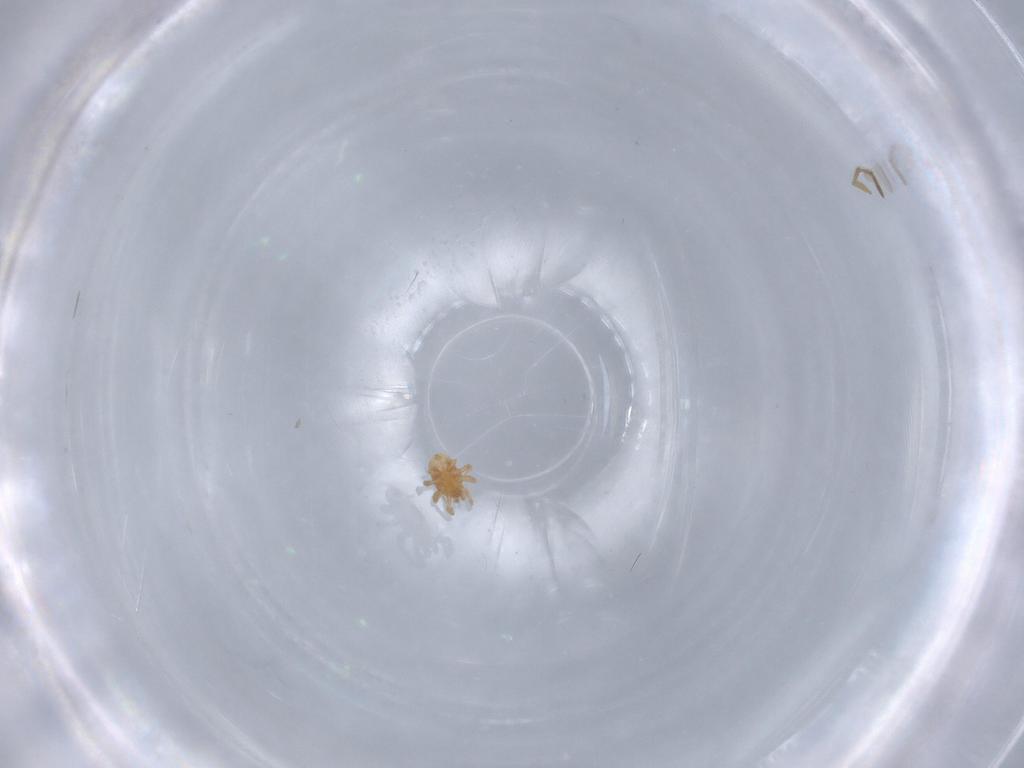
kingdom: Animalia
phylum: Arthropoda
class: Arachnida
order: Mesostigmata
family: Parasitidae
